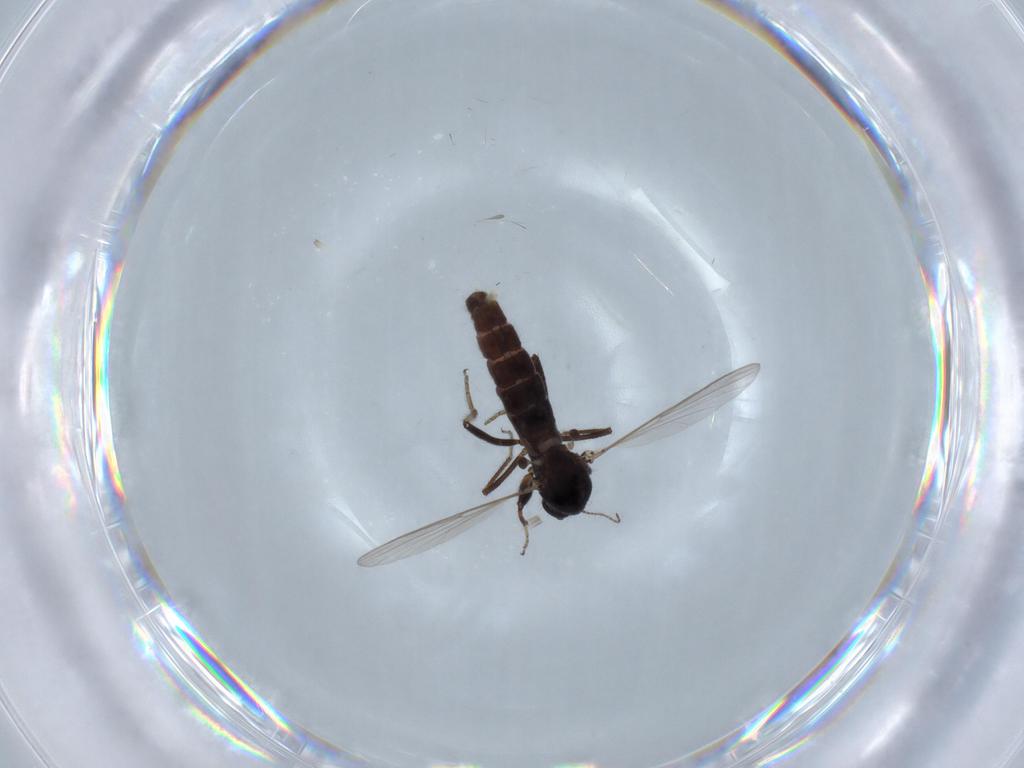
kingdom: Animalia
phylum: Arthropoda
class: Insecta
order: Diptera
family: Ceratopogonidae
